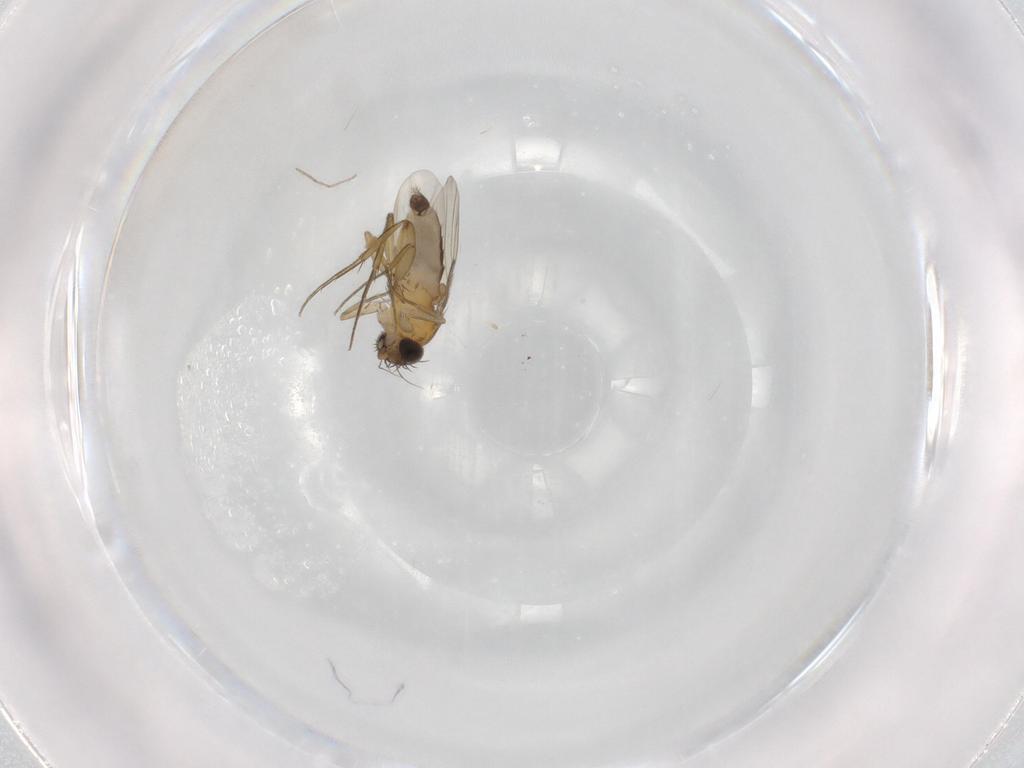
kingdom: Animalia
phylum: Arthropoda
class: Insecta
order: Diptera
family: Phoridae
